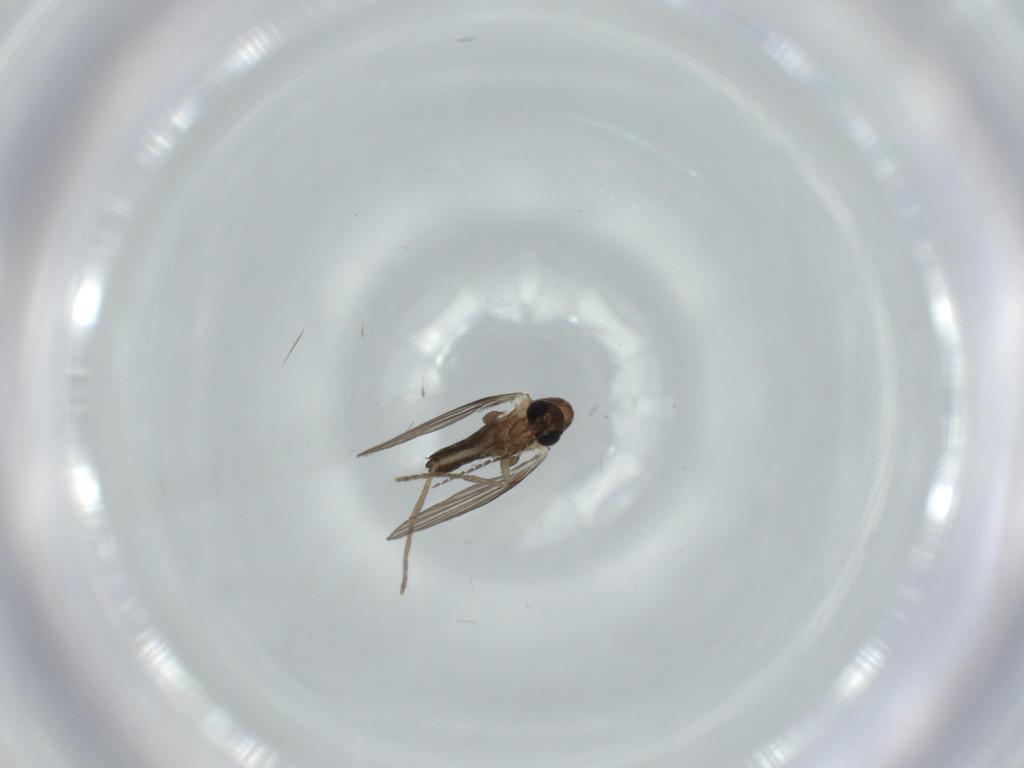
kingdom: Animalia
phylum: Arthropoda
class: Insecta
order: Diptera
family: Psychodidae
